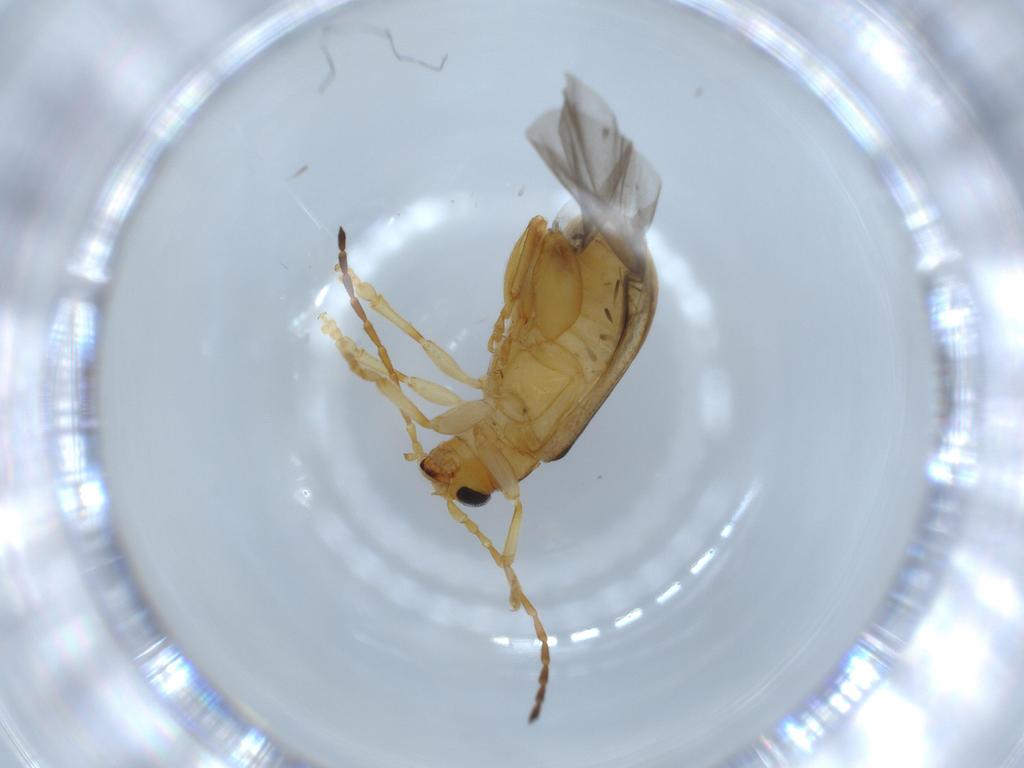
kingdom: Animalia
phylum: Arthropoda
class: Insecta
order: Coleoptera
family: Chrysomelidae
